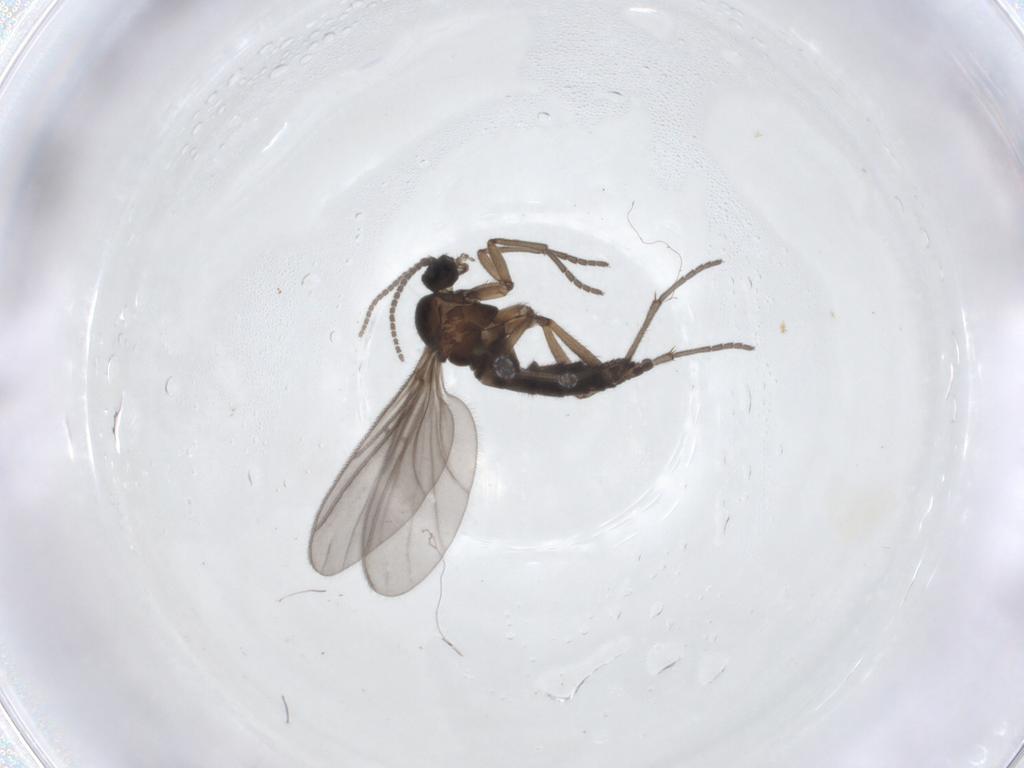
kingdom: Animalia
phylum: Arthropoda
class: Insecta
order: Diptera
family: Sciaridae
